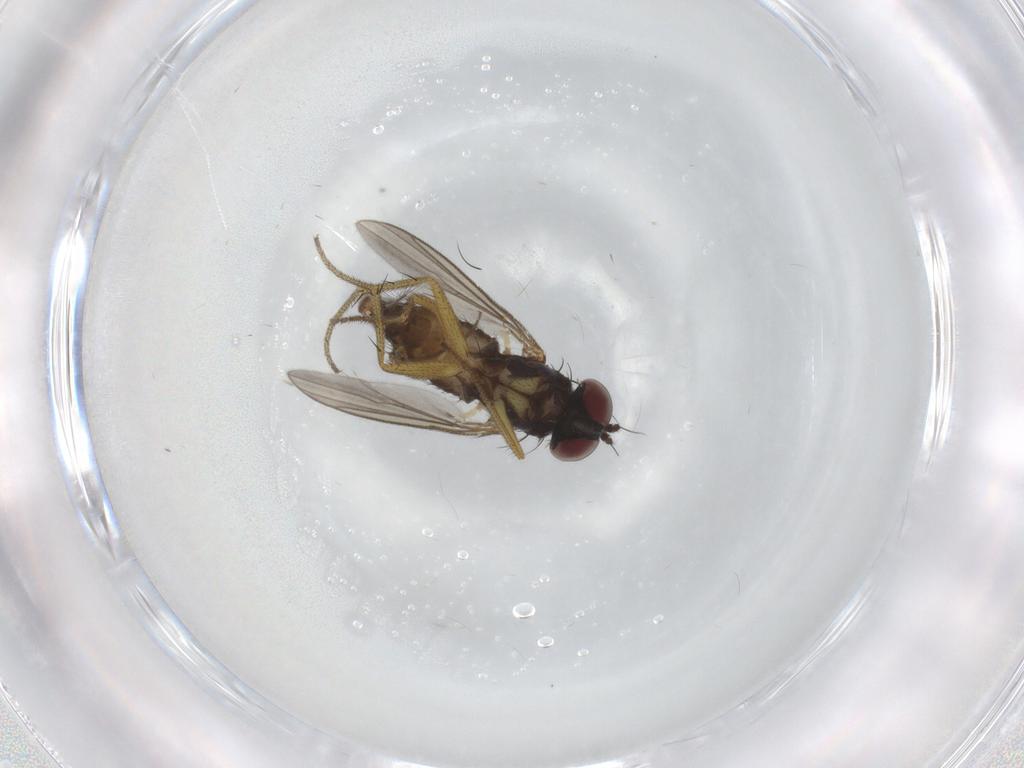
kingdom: Animalia
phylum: Arthropoda
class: Insecta
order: Diptera
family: Dolichopodidae
